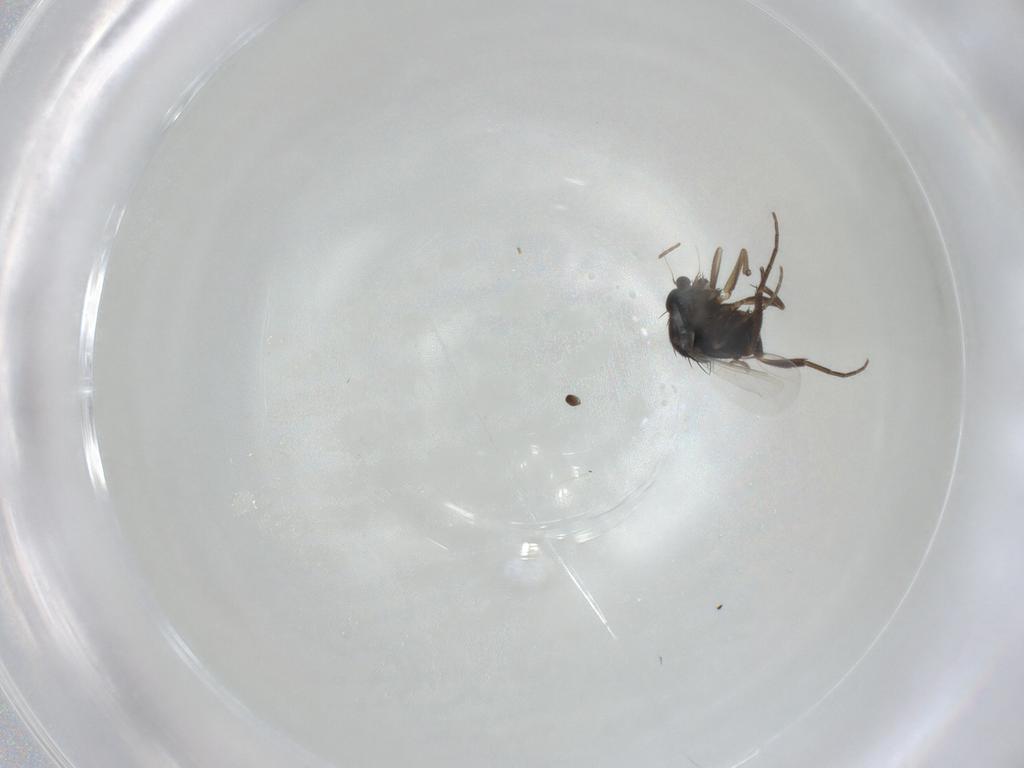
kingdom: Animalia
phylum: Arthropoda
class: Insecta
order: Diptera
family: Phoridae
